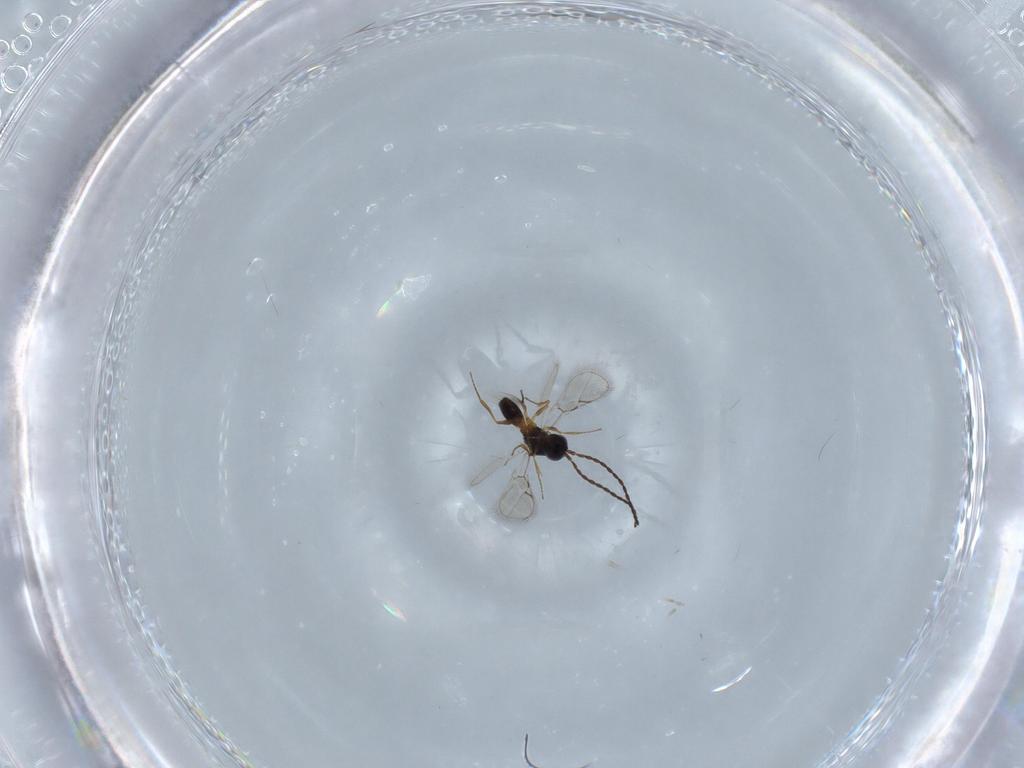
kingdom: Animalia
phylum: Arthropoda
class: Insecta
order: Hymenoptera
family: Figitidae
